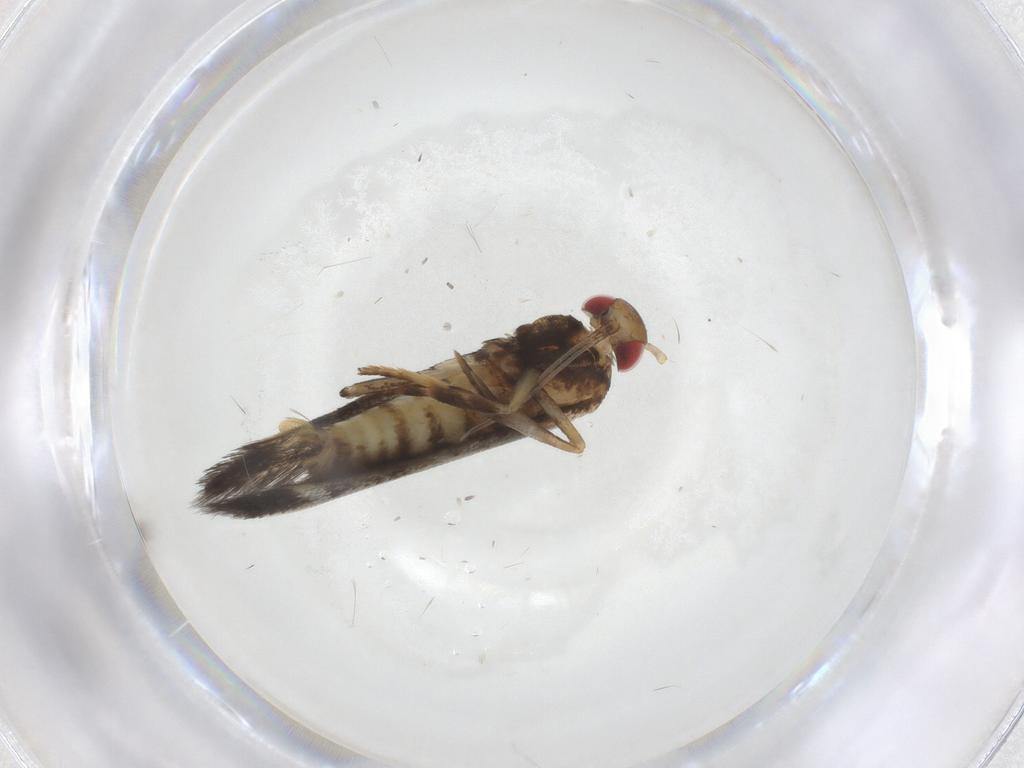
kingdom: Animalia
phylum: Arthropoda
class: Insecta
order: Lepidoptera
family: Gelechiidae
